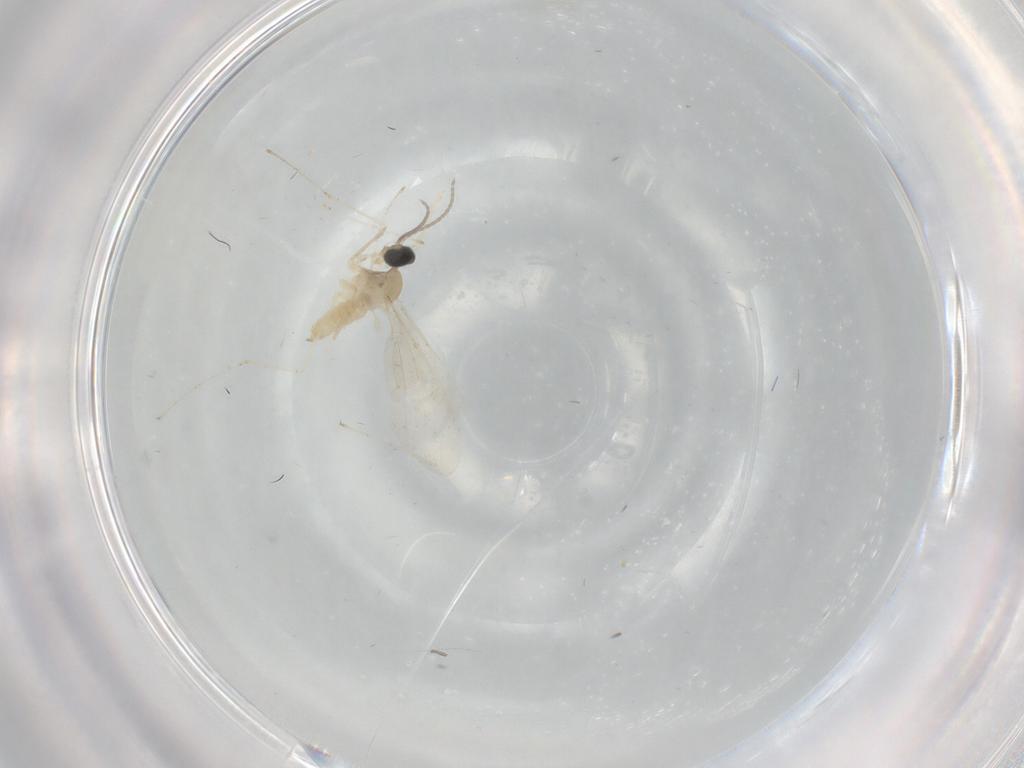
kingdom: Animalia
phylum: Arthropoda
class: Insecta
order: Diptera
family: Cecidomyiidae
